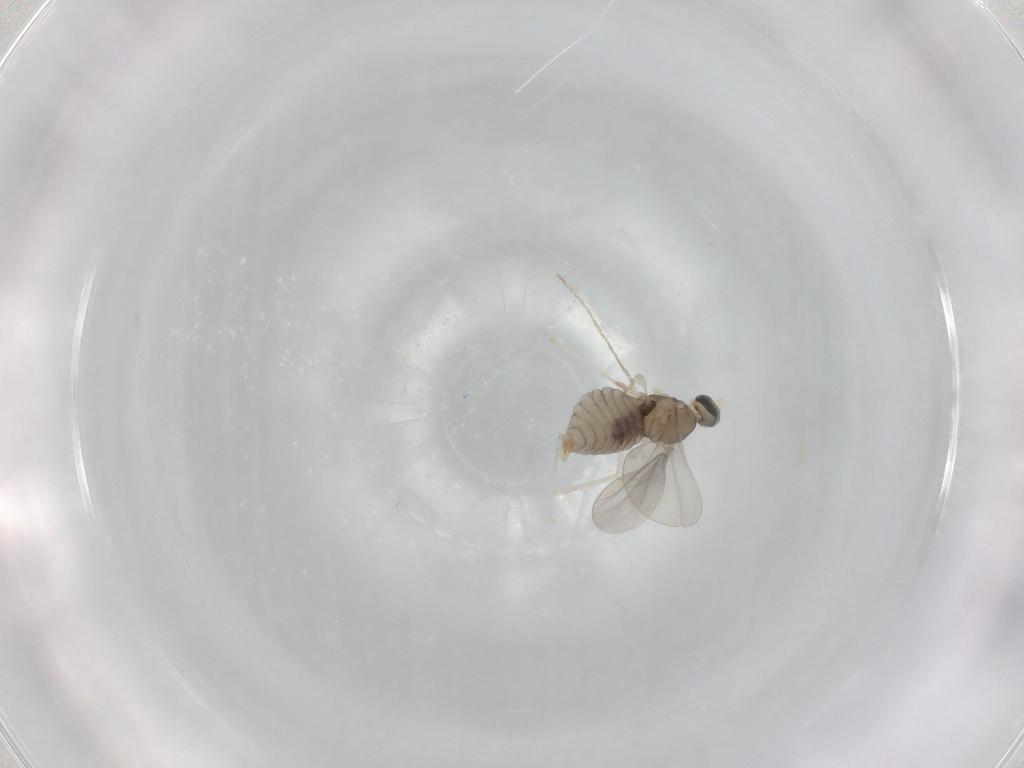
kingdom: Animalia
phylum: Arthropoda
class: Insecta
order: Diptera
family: Cecidomyiidae
